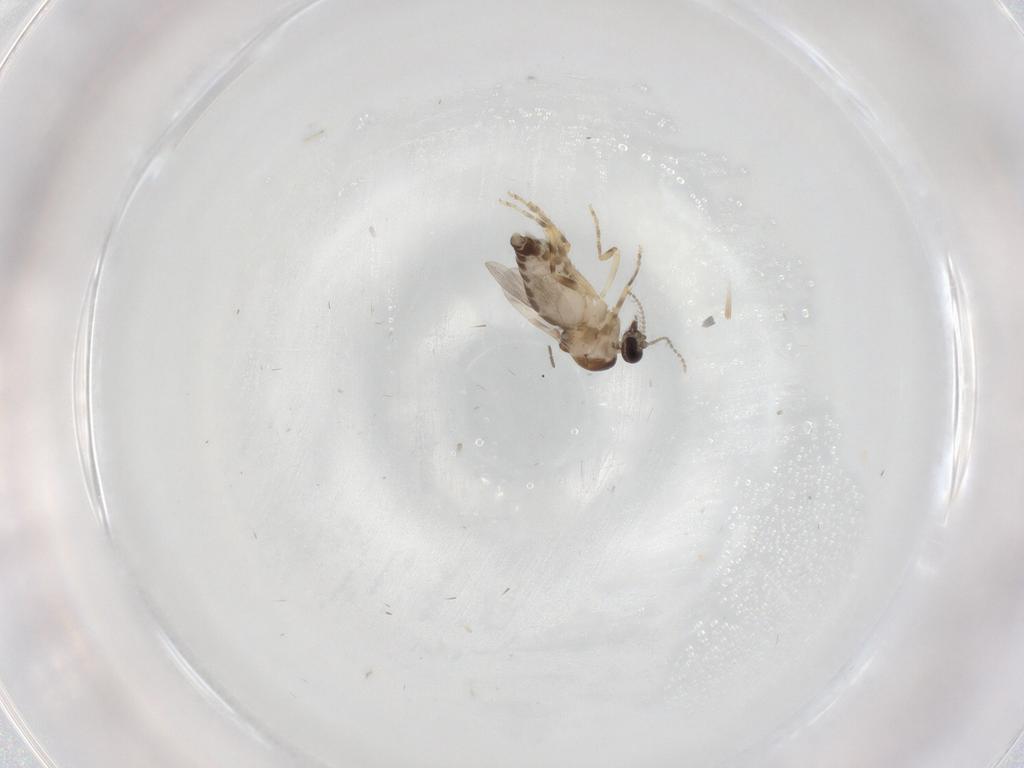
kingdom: Animalia
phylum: Arthropoda
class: Insecta
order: Diptera
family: Ceratopogonidae
